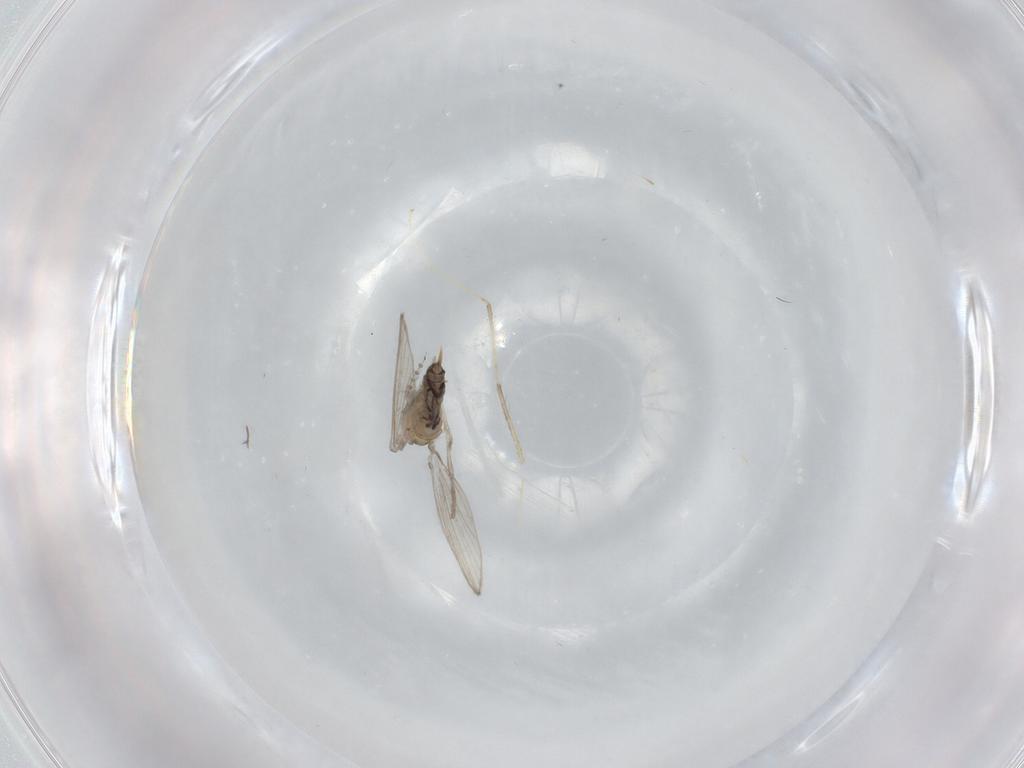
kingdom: Animalia
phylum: Arthropoda
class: Insecta
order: Diptera
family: Psychodidae
